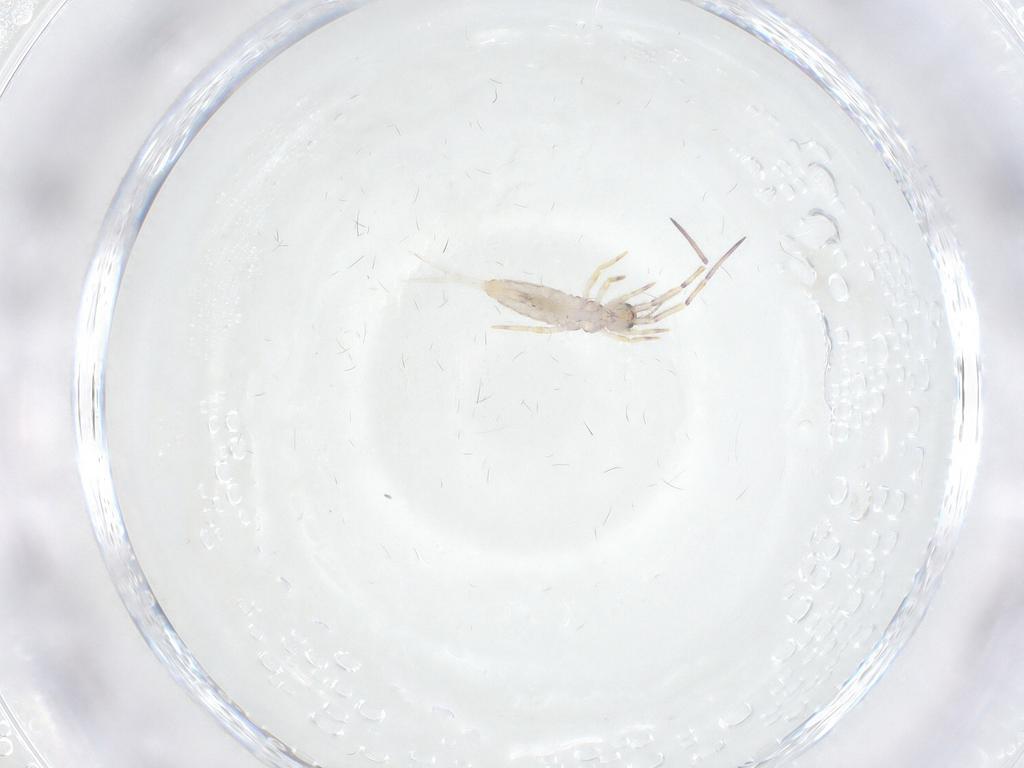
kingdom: Animalia
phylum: Arthropoda
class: Collembola
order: Entomobryomorpha
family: Entomobryidae
